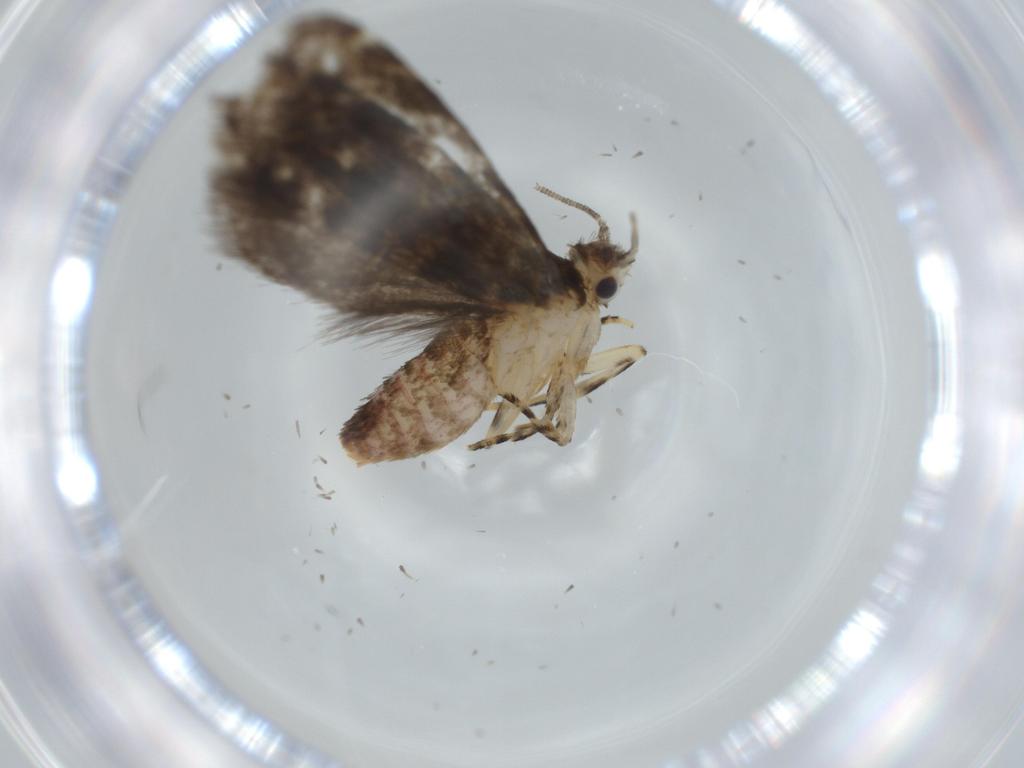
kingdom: Animalia
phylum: Arthropoda
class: Insecta
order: Lepidoptera
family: Tineidae
